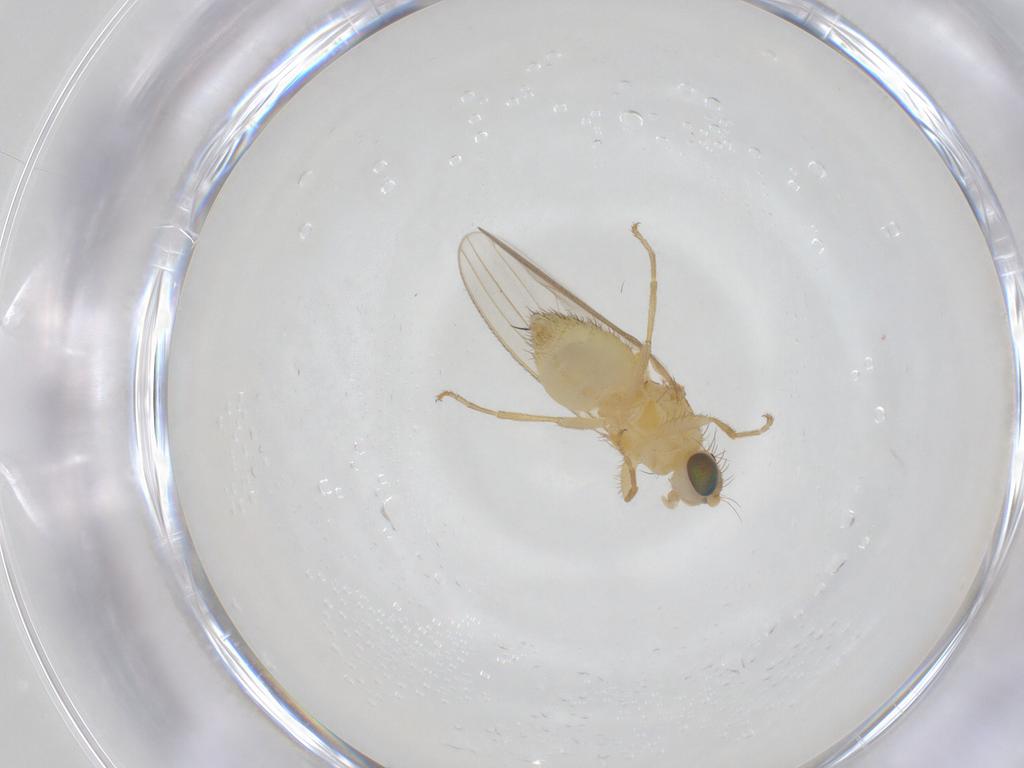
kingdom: Animalia
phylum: Arthropoda
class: Insecta
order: Diptera
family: Chyromyidae
